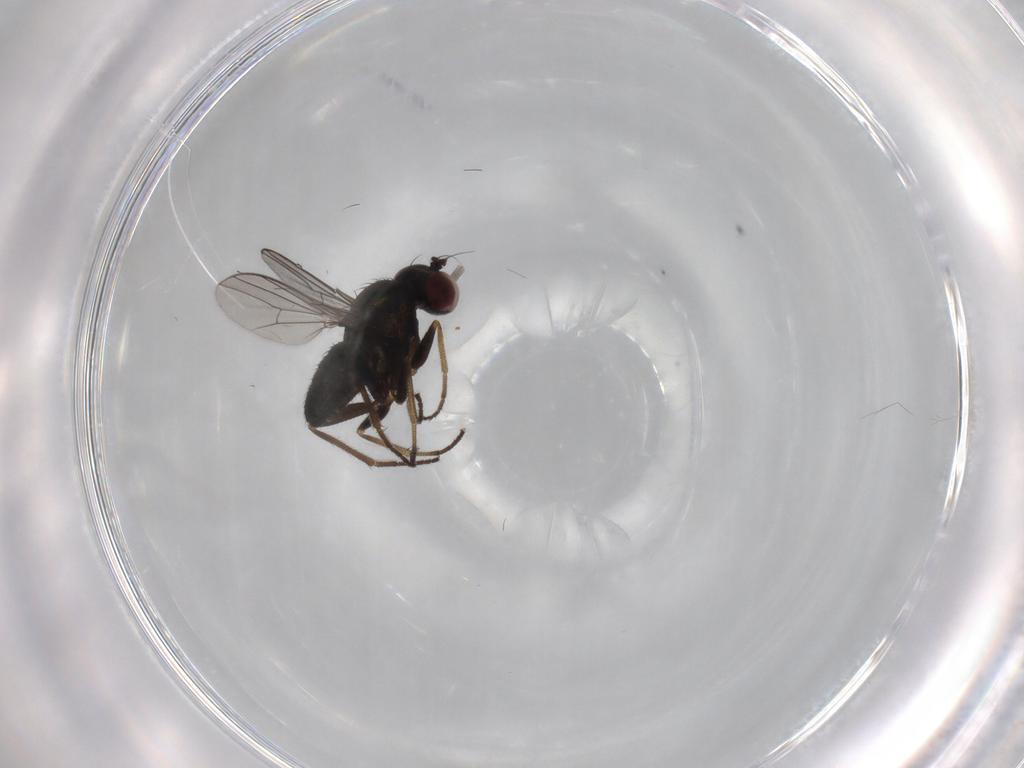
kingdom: Animalia
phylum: Arthropoda
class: Insecta
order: Diptera
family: Dolichopodidae
